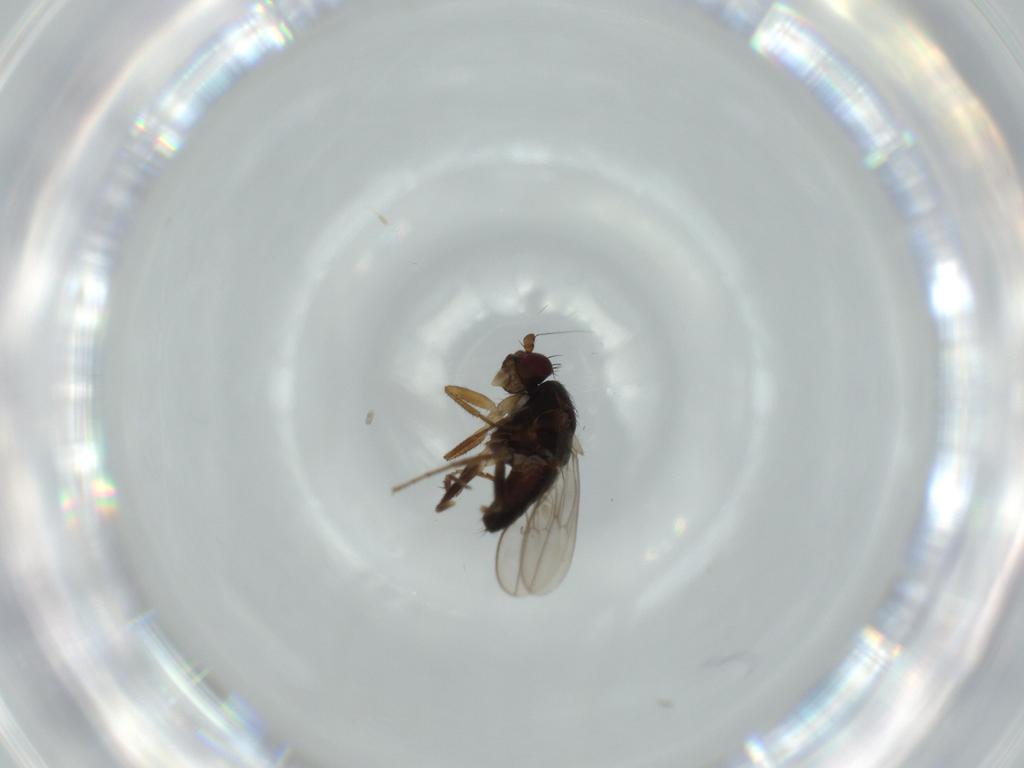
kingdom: Animalia
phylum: Arthropoda
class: Insecta
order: Diptera
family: Sphaeroceridae
